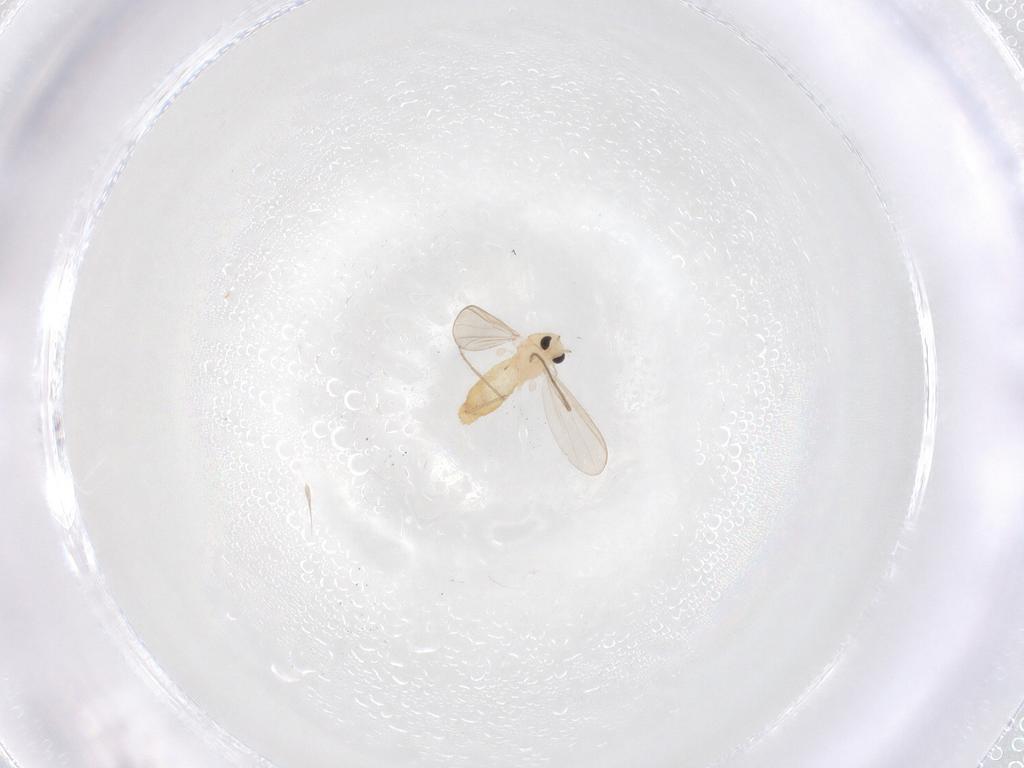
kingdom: Animalia
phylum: Arthropoda
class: Insecta
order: Diptera
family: Chironomidae
